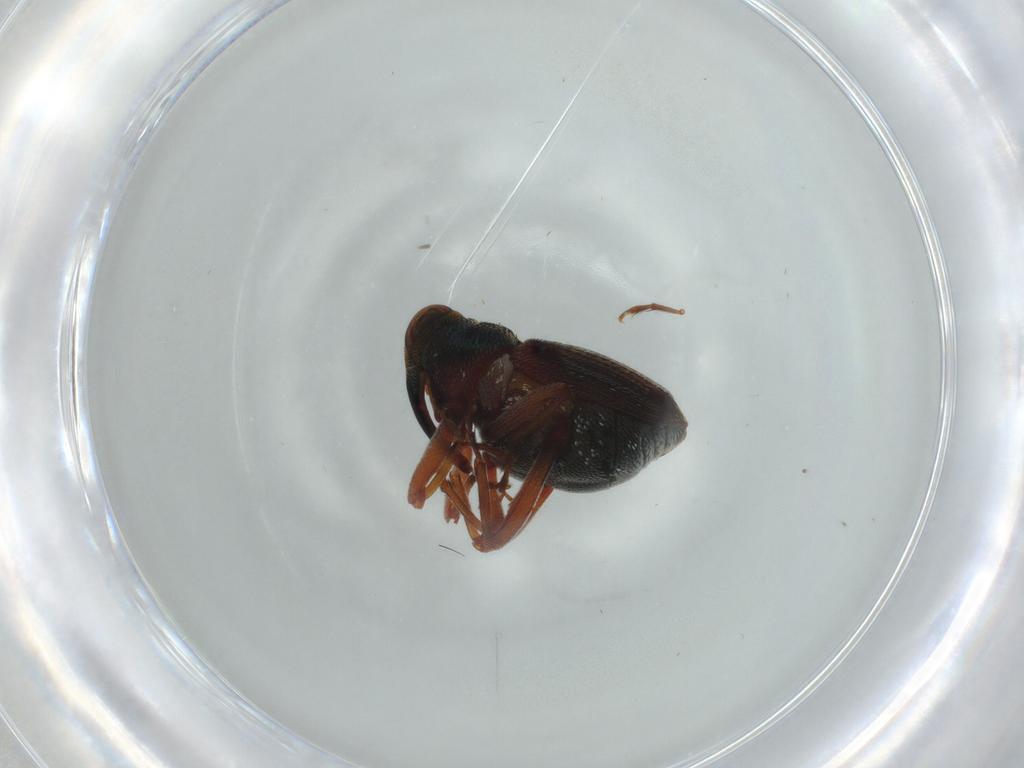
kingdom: Animalia
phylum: Arthropoda
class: Insecta
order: Coleoptera
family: Curculionidae
